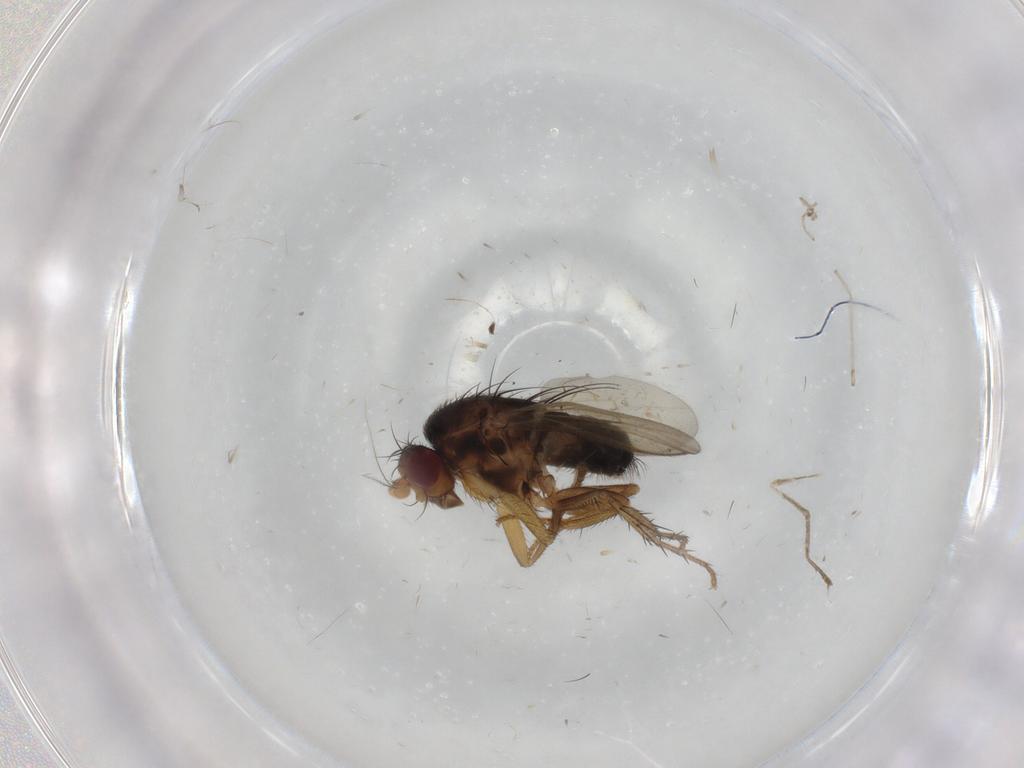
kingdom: Animalia
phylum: Arthropoda
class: Insecta
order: Diptera
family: Sphaeroceridae
